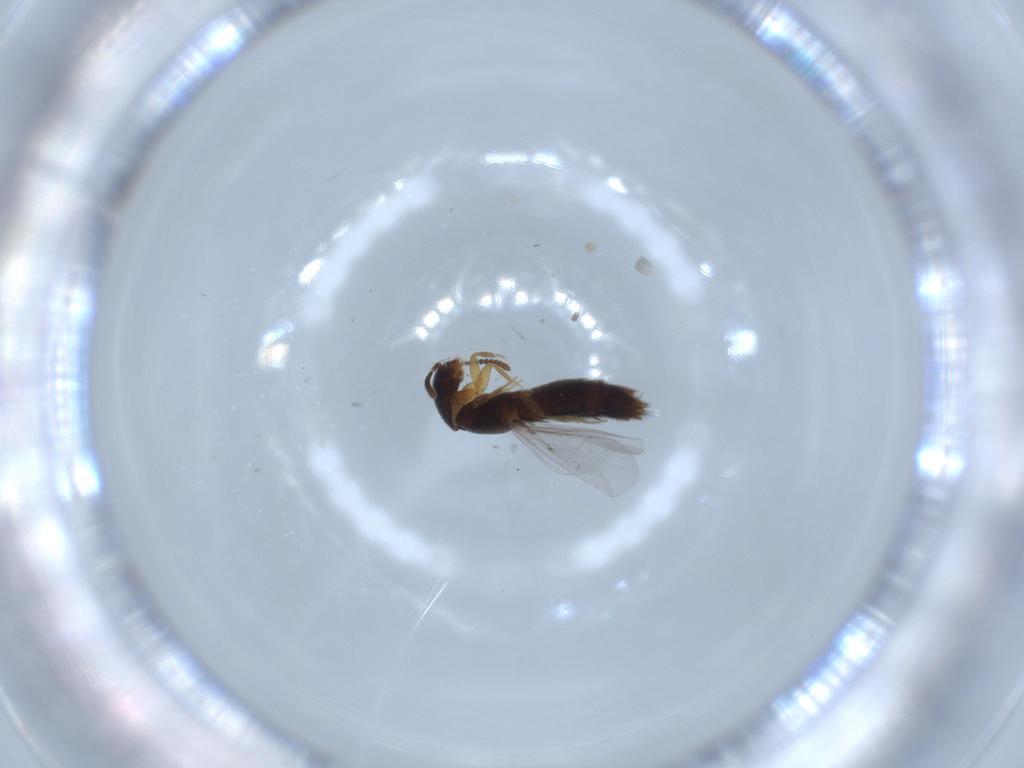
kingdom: Animalia
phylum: Arthropoda
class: Insecta
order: Coleoptera
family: Staphylinidae
